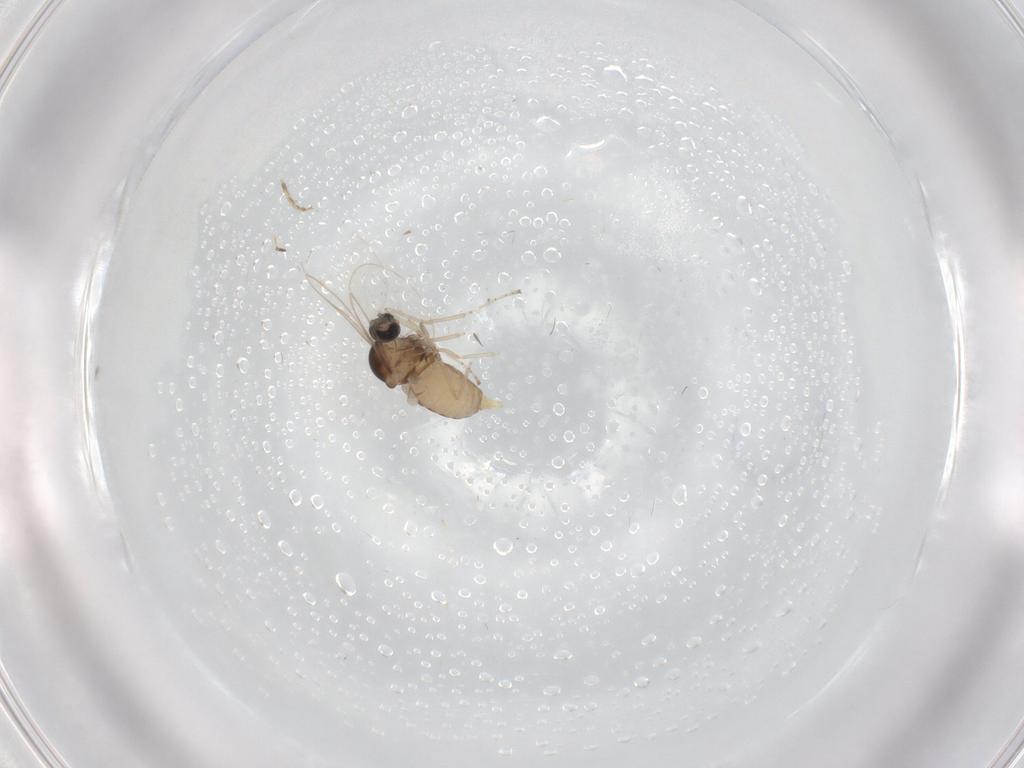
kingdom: Animalia
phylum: Arthropoda
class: Insecta
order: Diptera
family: Cecidomyiidae
